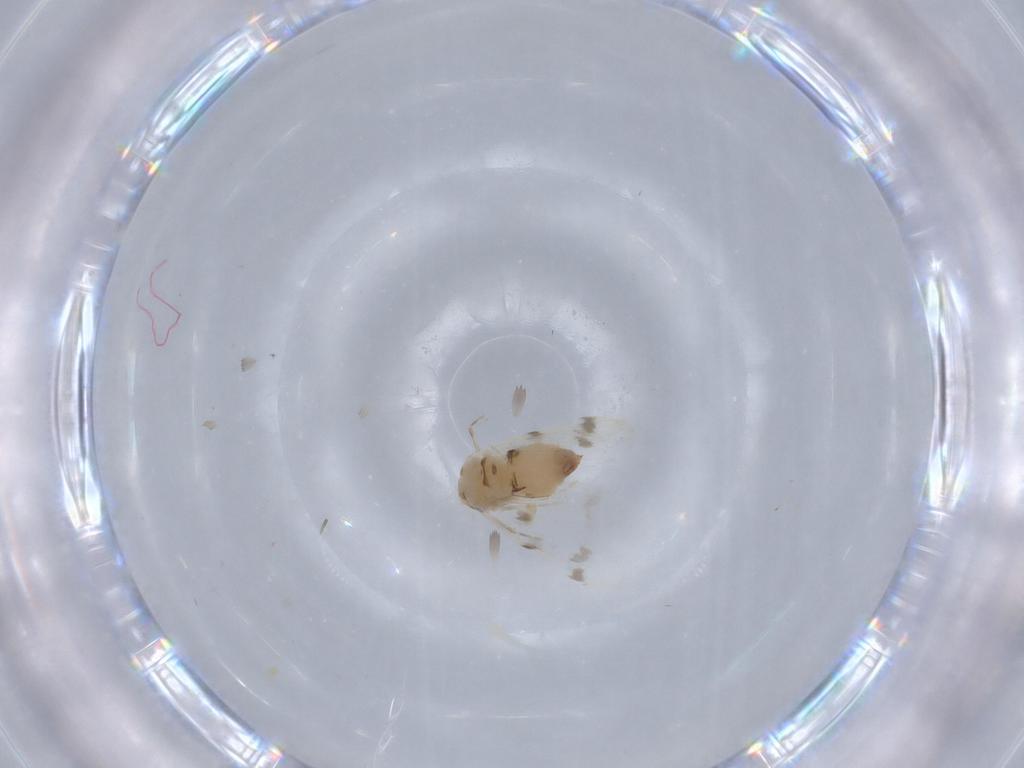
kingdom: Animalia
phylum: Arthropoda
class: Insecta
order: Hemiptera
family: Aleyrodidae
